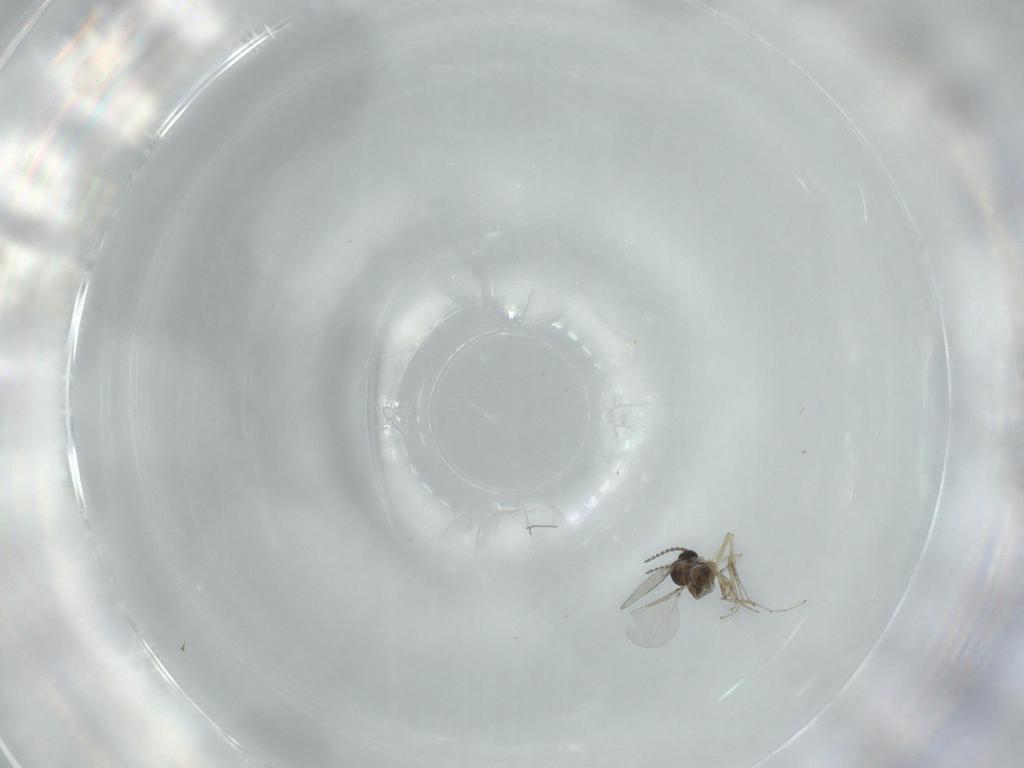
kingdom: Animalia
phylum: Arthropoda
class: Insecta
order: Diptera
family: Cecidomyiidae
